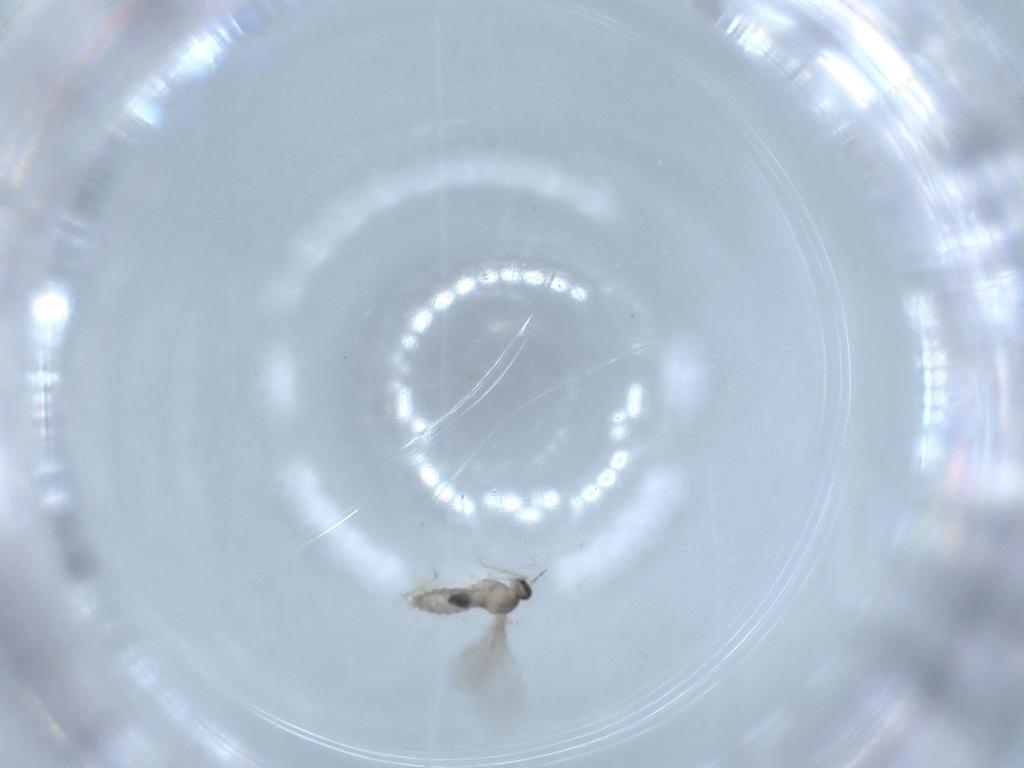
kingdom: Animalia
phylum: Arthropoda
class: Insecta
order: Diptera
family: Cecidomyiidae
